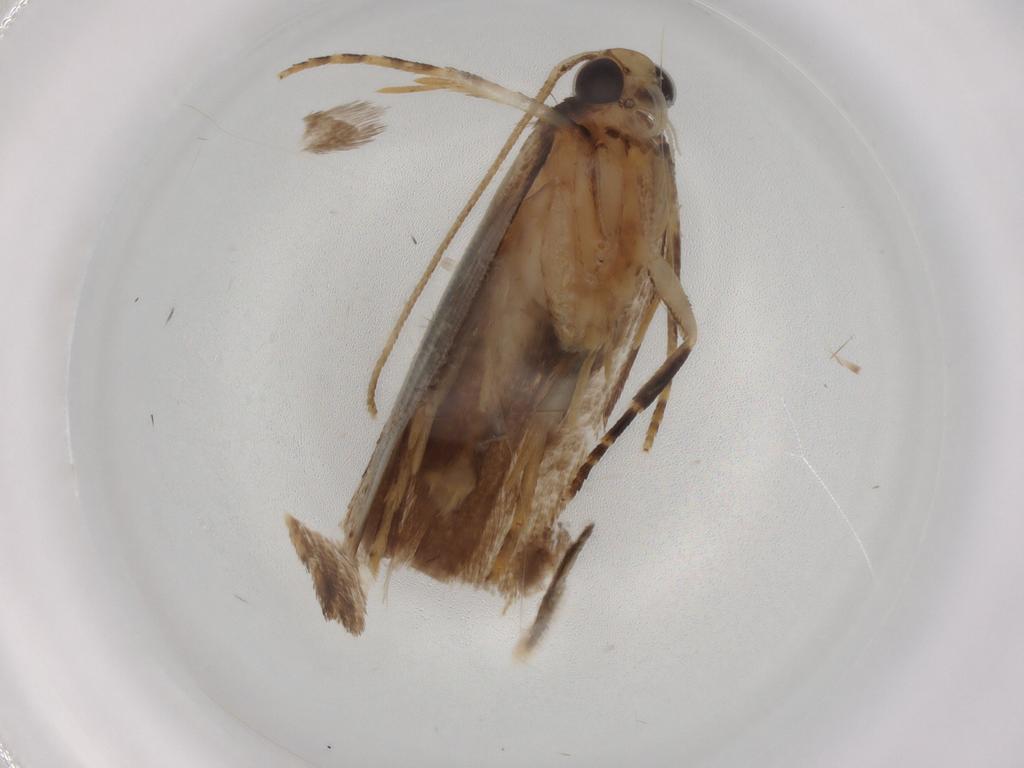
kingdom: Animalia
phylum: Arthropoda
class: Insecta
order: Lepidoptera
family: Gelechiidae
